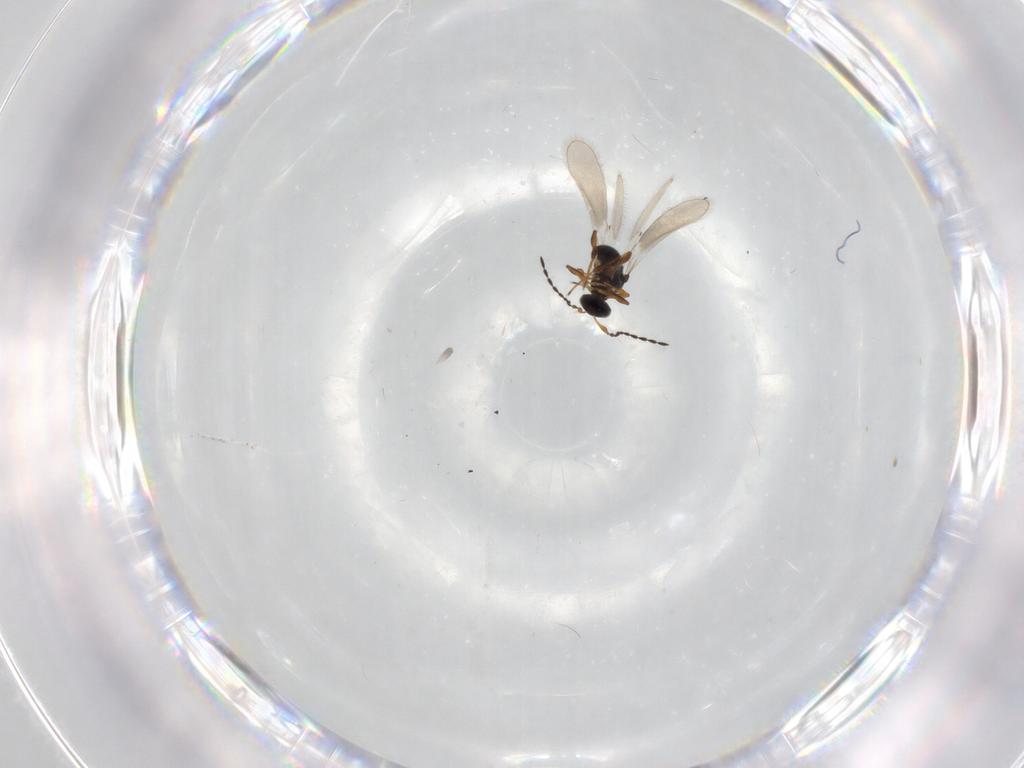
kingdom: Animalia
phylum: Arthropoda
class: Insecta
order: Hymenoptera
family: Platygastridae
